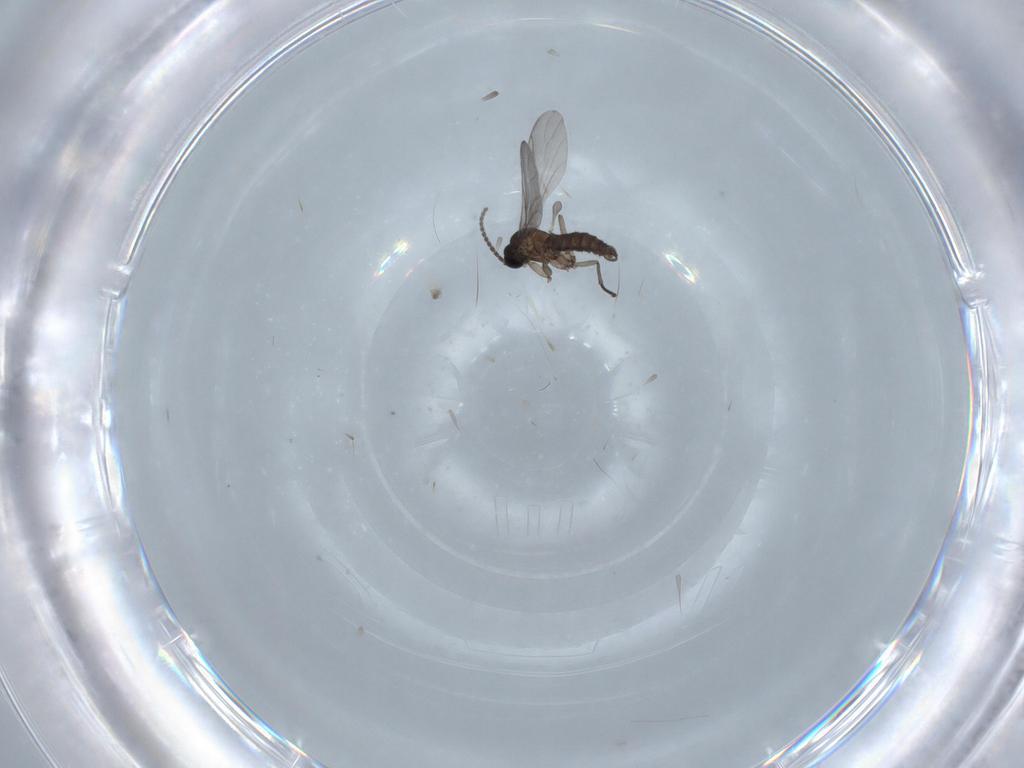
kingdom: Animalia
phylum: Arthropoda
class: Insecta
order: Diptera
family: Sciaridae
